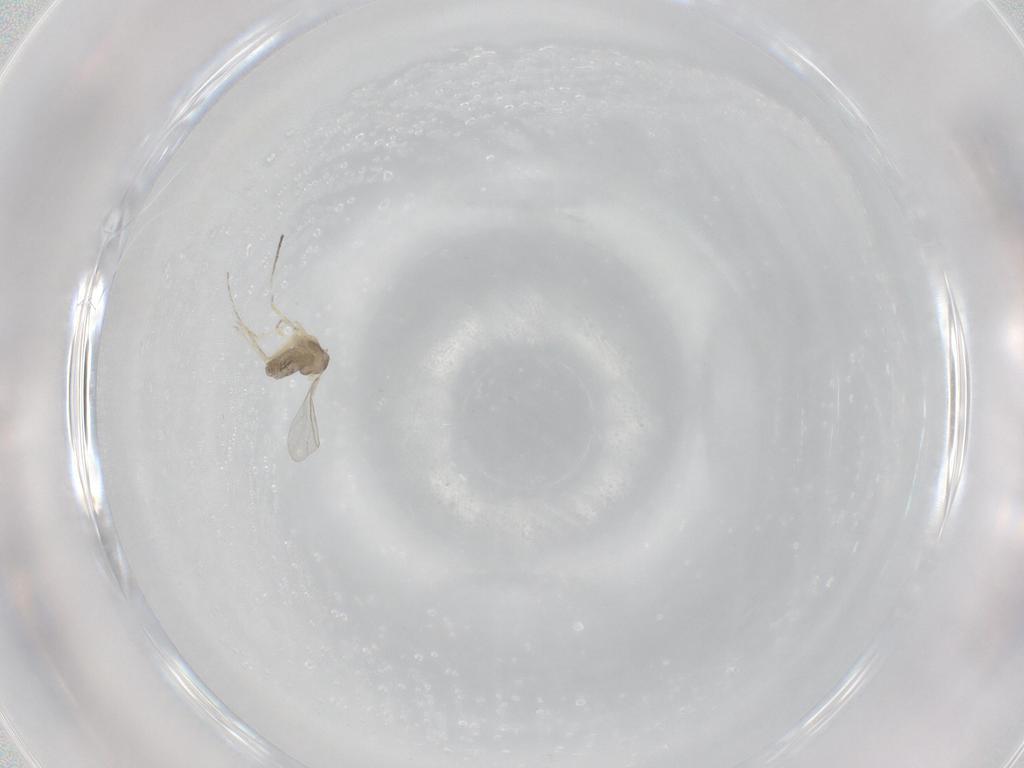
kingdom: Animalia
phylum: Arthropoda
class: Insecta
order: Diptera
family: Cecidomyiidae
